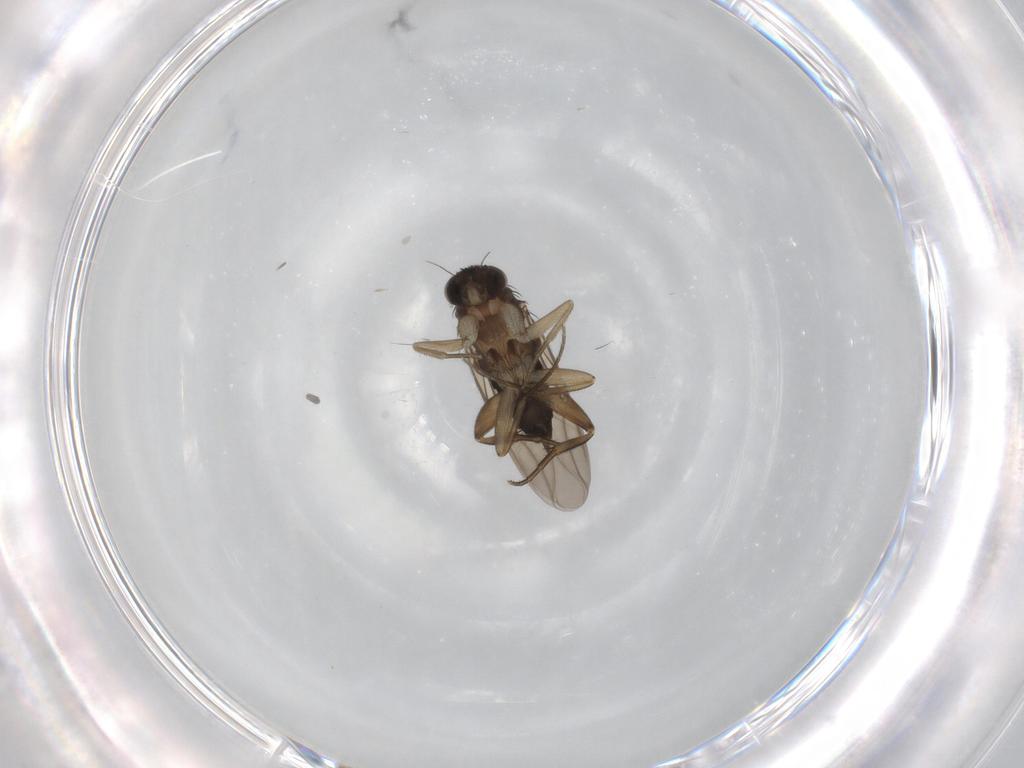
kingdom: Animalia
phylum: Arthropoda
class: Insecta
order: Diptera
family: Phoridae
